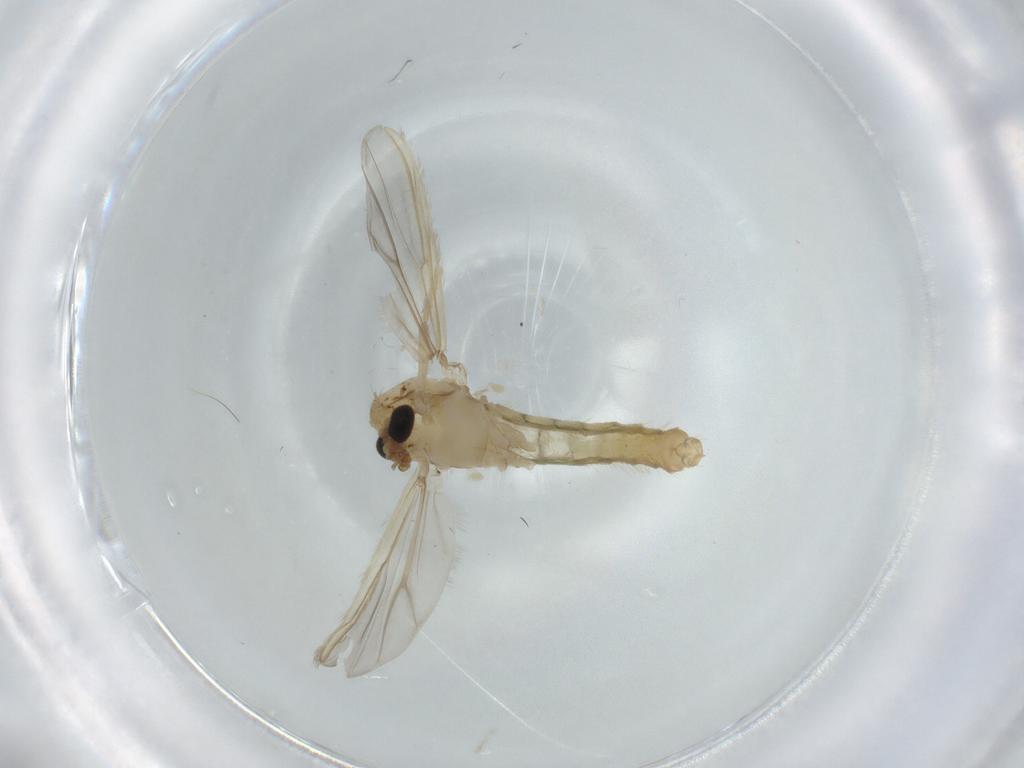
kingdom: Animalia
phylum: Arthropoda
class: Insecta
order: Diptera
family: Chironomidae
